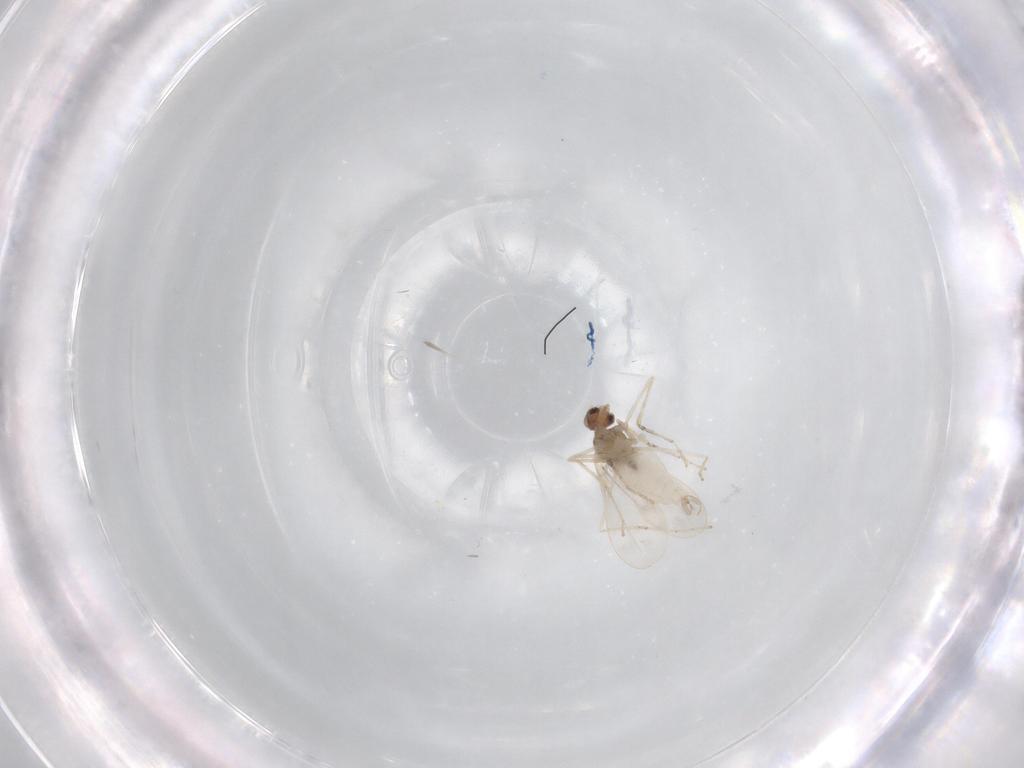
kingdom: Animalia
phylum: Arthropoda
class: Insecta
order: Diptera
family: Cecidomyiidae
